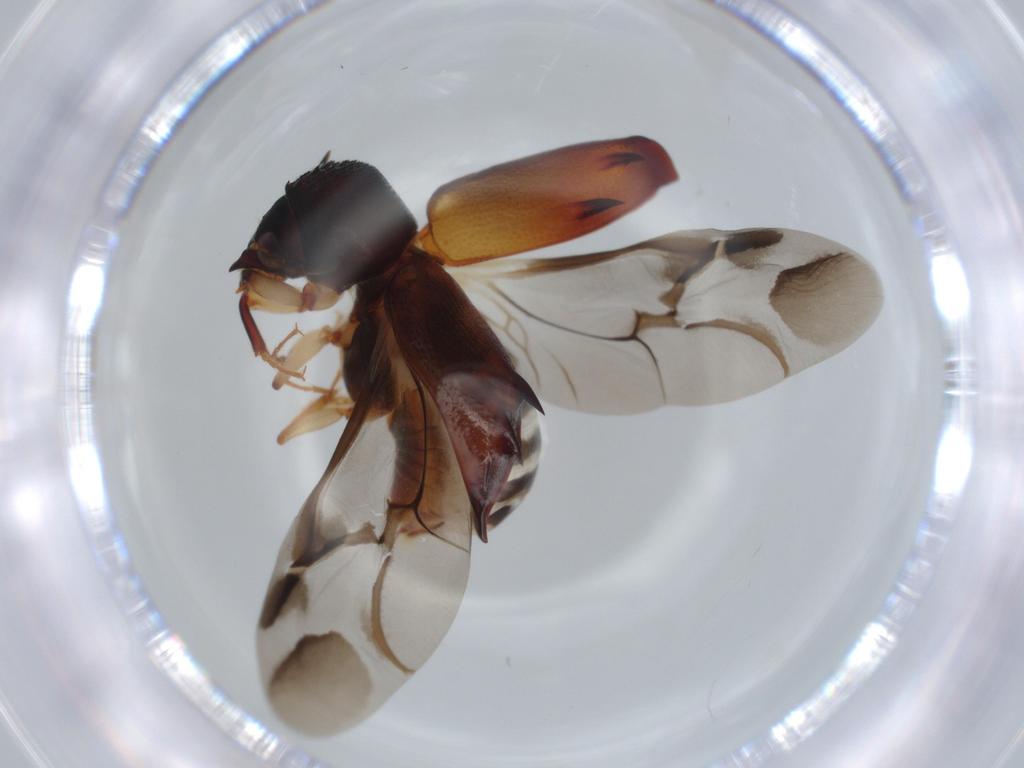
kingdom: Animalia
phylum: Arthropoda
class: Insecta
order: Coleoptera
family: Bostrichidae
